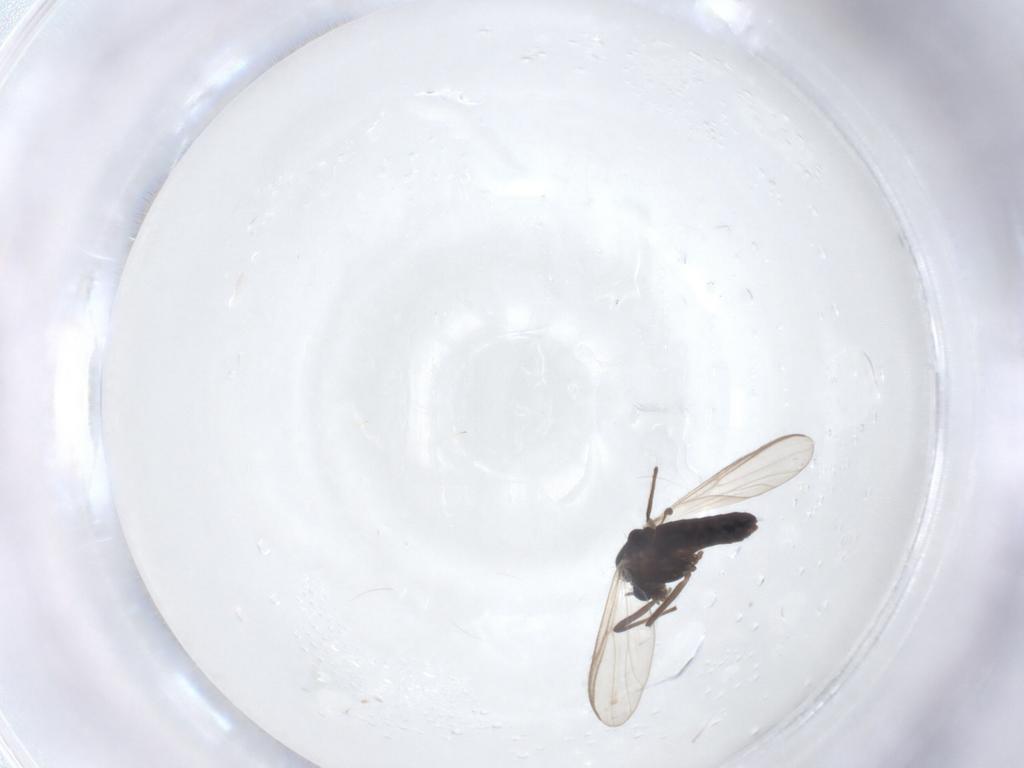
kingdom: Animalia
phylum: Arthropoda
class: Insecta
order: Diptera
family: Chironomidae
